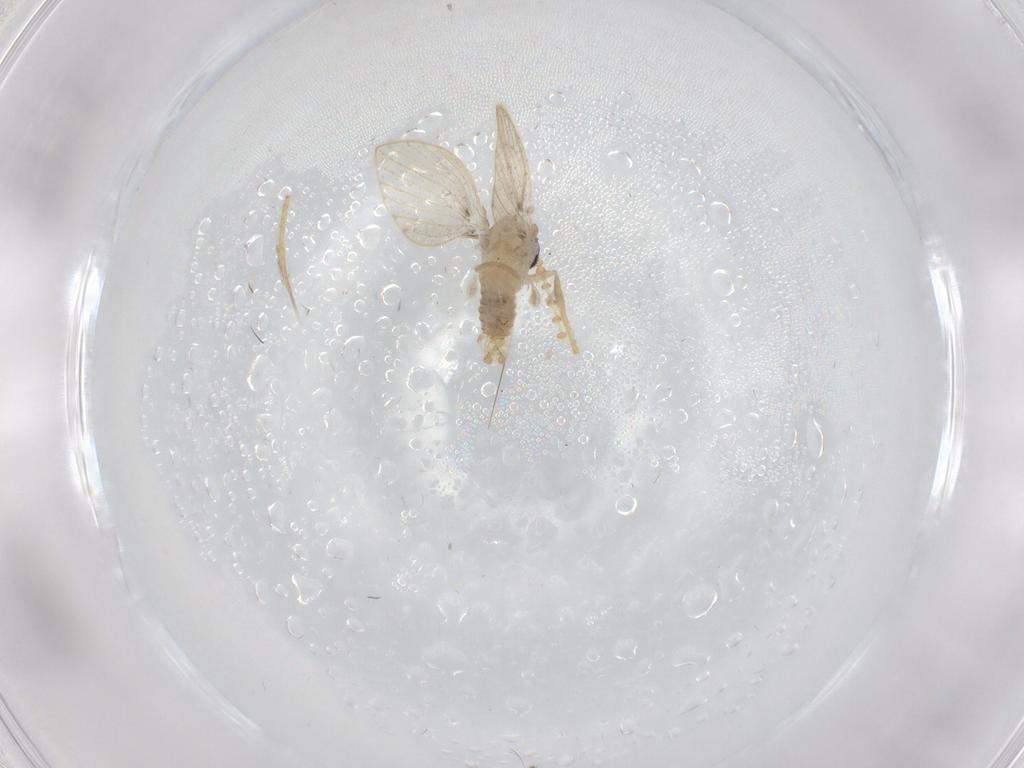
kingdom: Animalia
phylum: Arthropoda
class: Insecta
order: Diptera
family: Psychodidae
